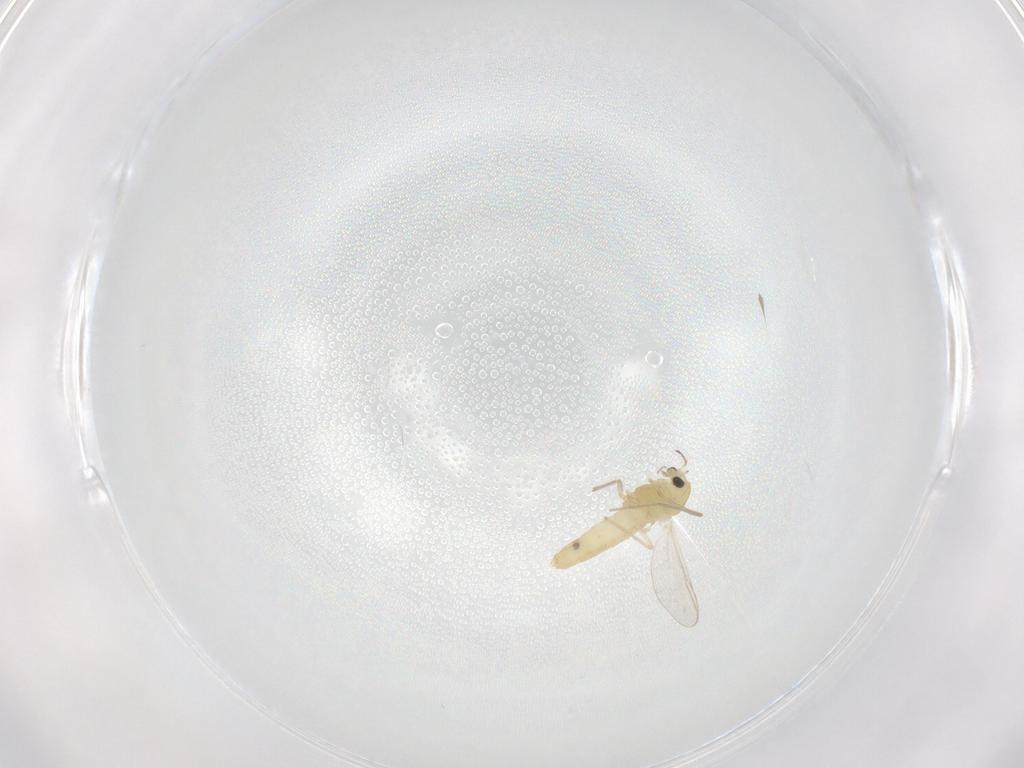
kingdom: Animalia
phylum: Arthropoda
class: Insecta
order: Diptera
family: Chironomidae
